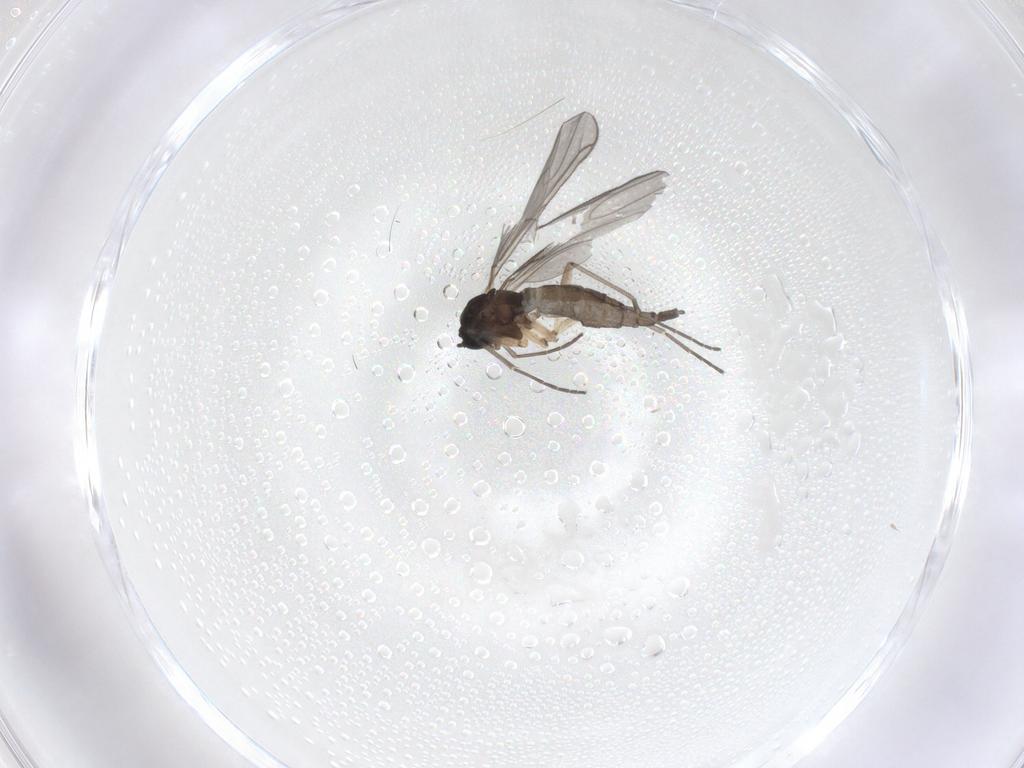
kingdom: Animalia
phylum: Arthropoda
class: Insecta
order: Diptera
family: Sciaridae
